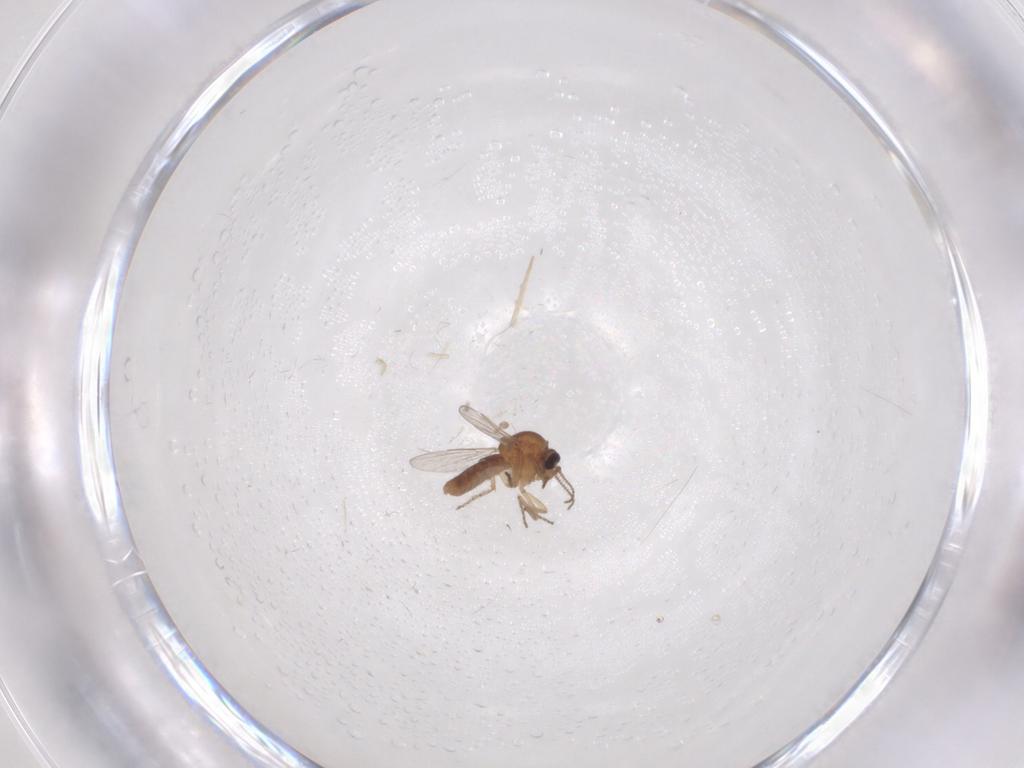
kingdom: Animalia
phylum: Arthropoda
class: Insecta
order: Diptera
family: Ceratopogonidae
